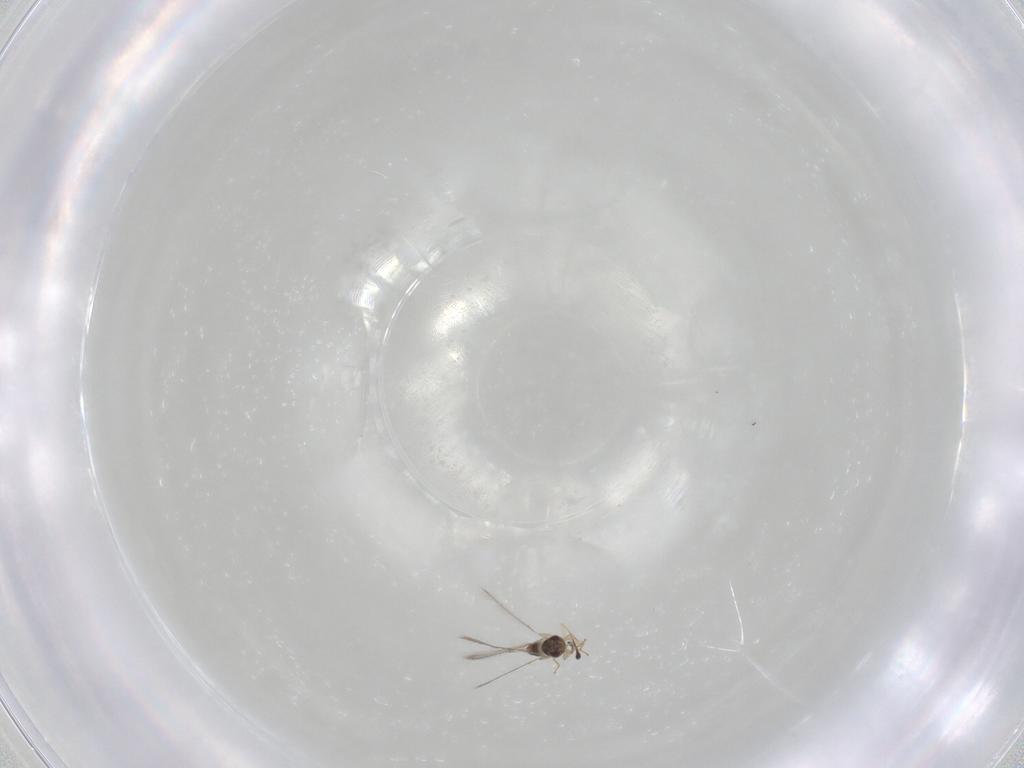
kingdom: Animalia
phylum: Arthropoda
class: Insecta
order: Hymenoptera
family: Mymaridae
